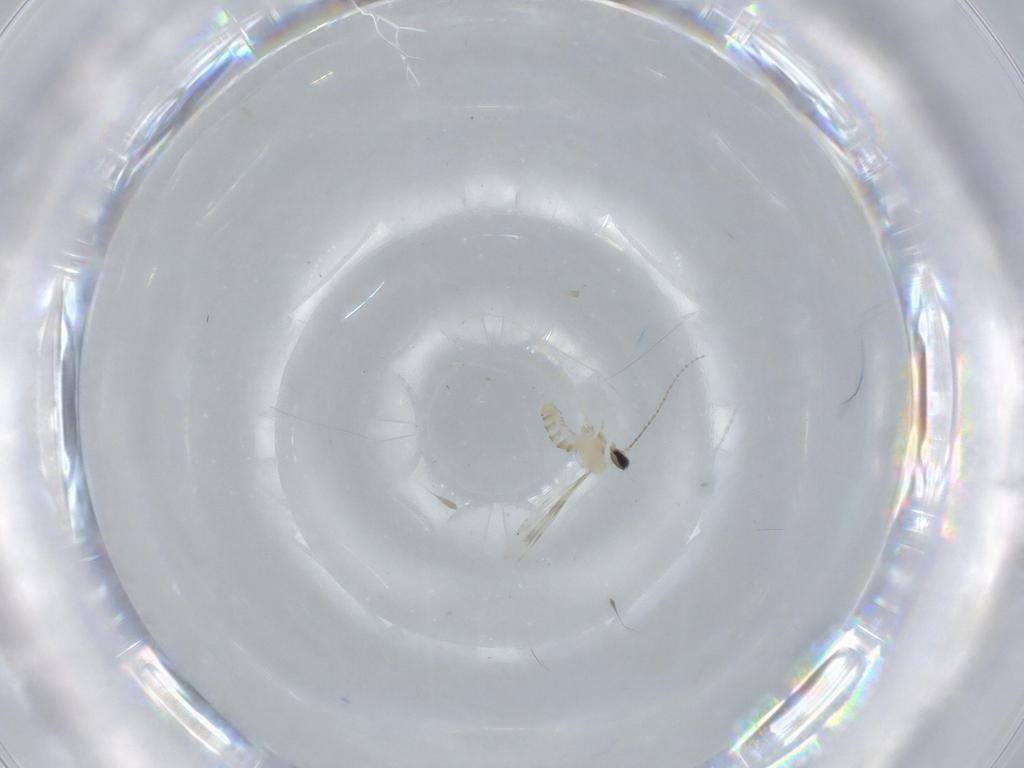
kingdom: Animalia
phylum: Arthropoda
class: Insecta
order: Diptera
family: Cecidomyiidae
